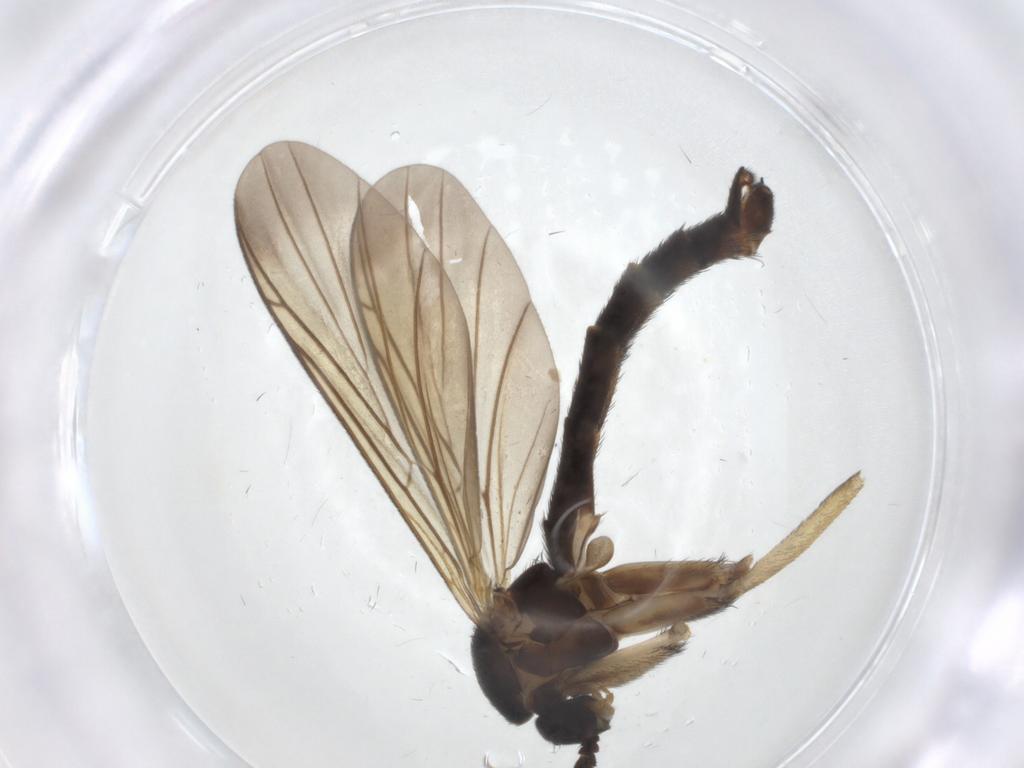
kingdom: Animalia
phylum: Arthropoda
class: Insecta
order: Diptera
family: Keroplatidae
